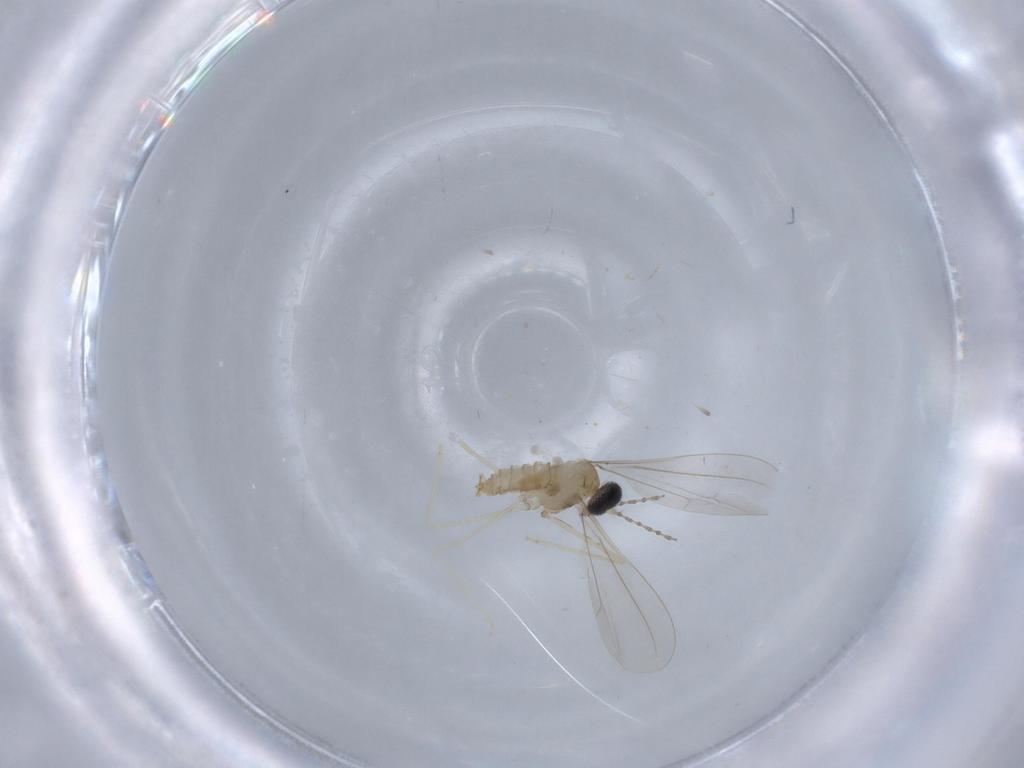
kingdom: Animalia
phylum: Arthropoda
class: Insecta
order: Diptera
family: Cecidomyiidae
